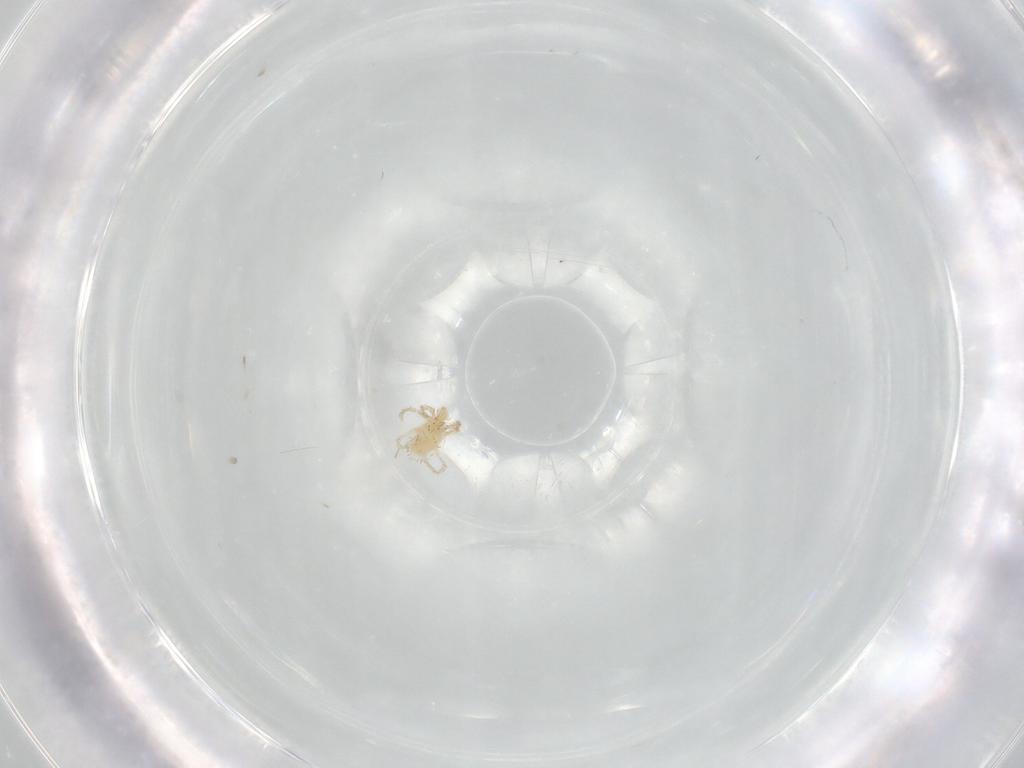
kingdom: Animalia
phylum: Arthropoda
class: Arachnida
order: Trombidiformes
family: Erythraeidae
